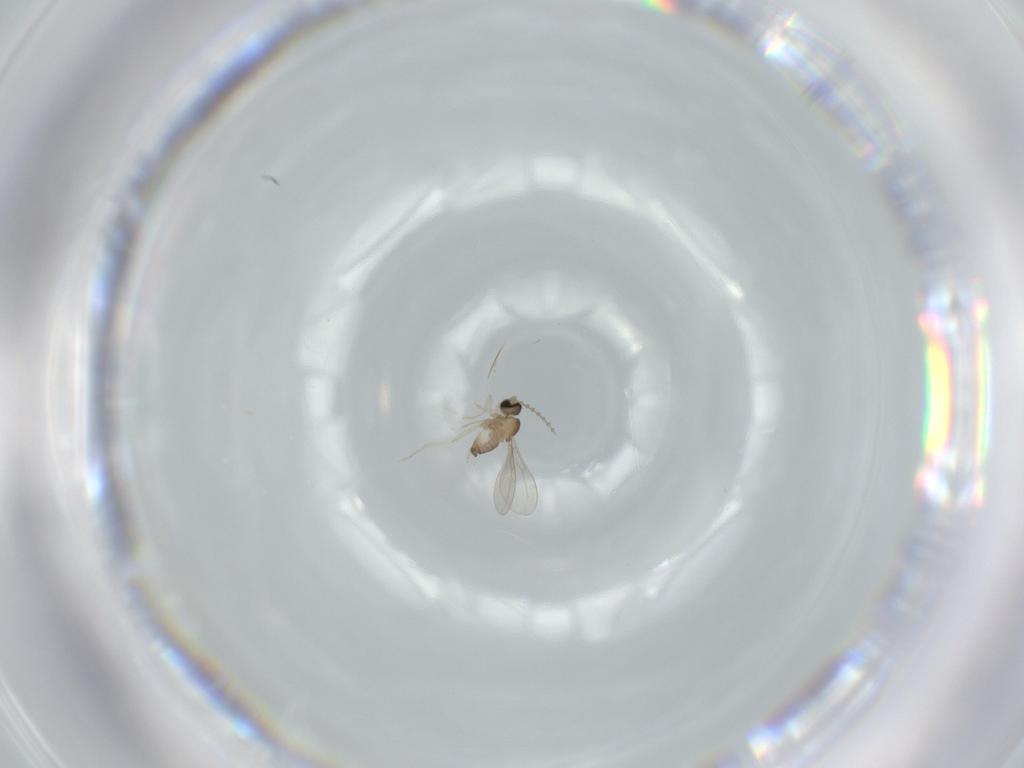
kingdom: Animalia
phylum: Arthropoda
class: Insecta
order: Diptera
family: Cecidomyiidae
